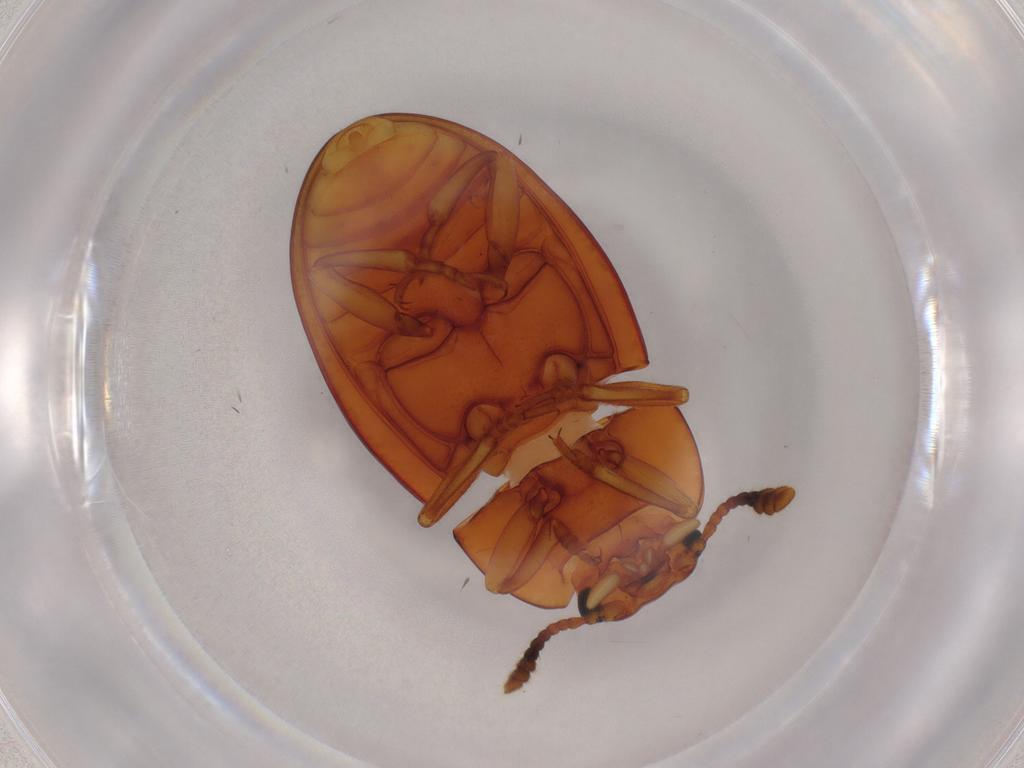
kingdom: Animalia
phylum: Arthropoda
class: Insecta
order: Coleoptera
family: Erotylidae
